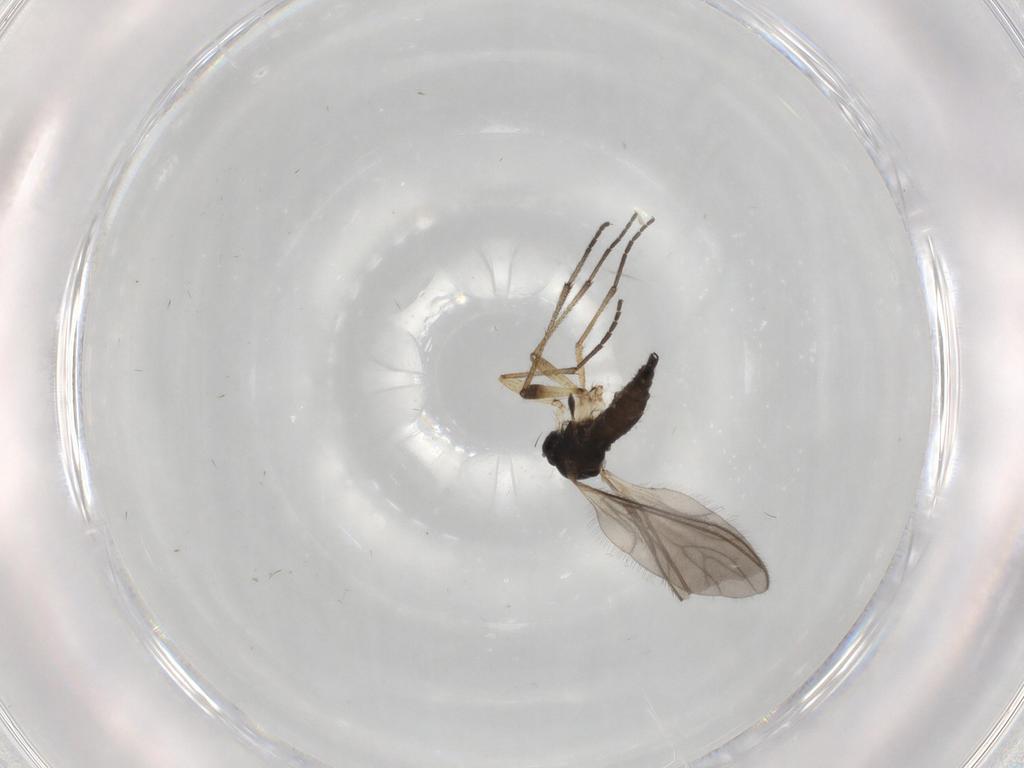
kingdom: Animalia
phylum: Arthropoda
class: Insecta
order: Diptera
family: Sciaridae
